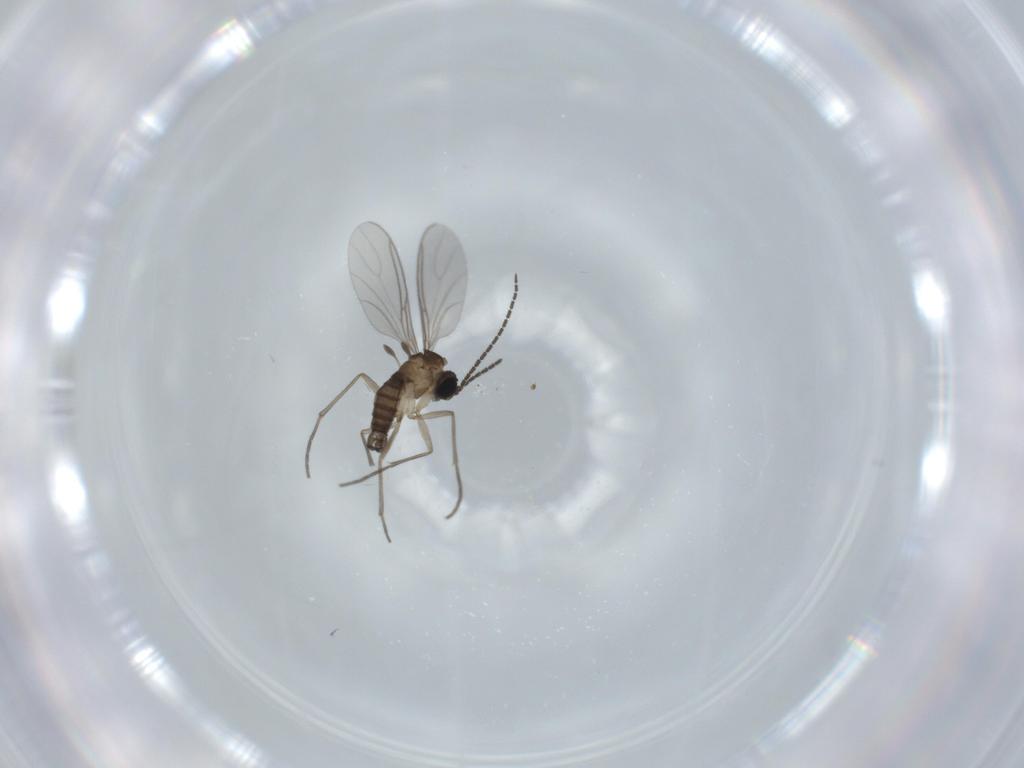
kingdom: Animalia
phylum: Arthropoda
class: Insecta
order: Diptera
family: Sciaridae
